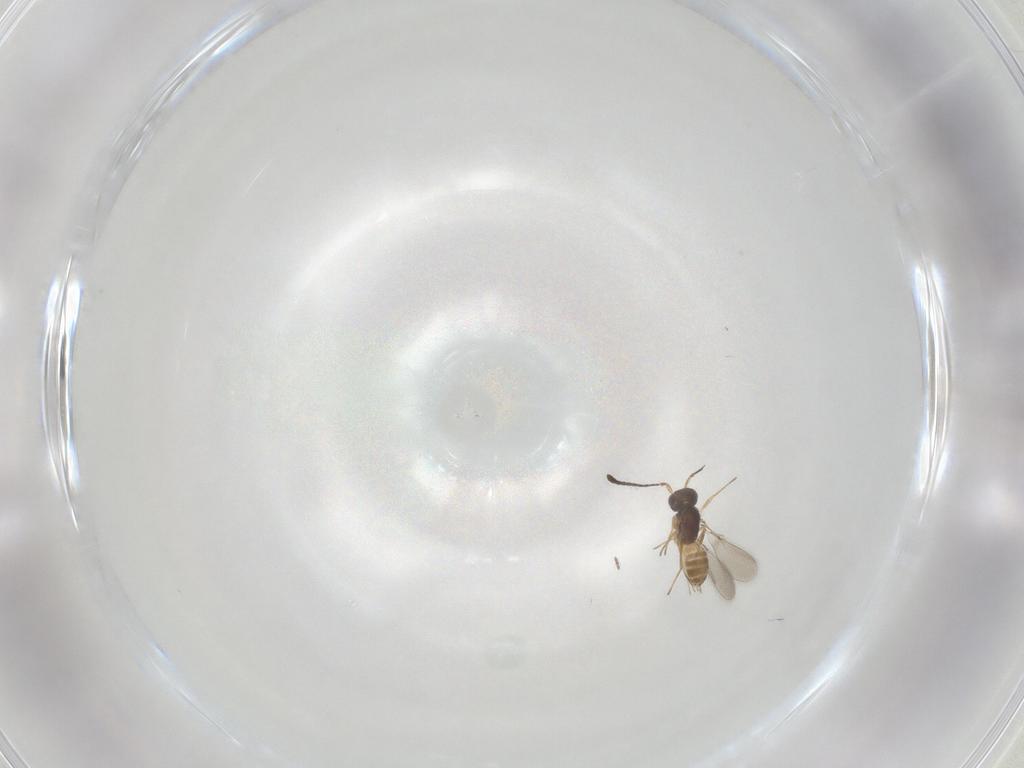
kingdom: Animalia
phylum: Arthropoda
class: Insecta
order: Hymenoptera
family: Mymaridae
